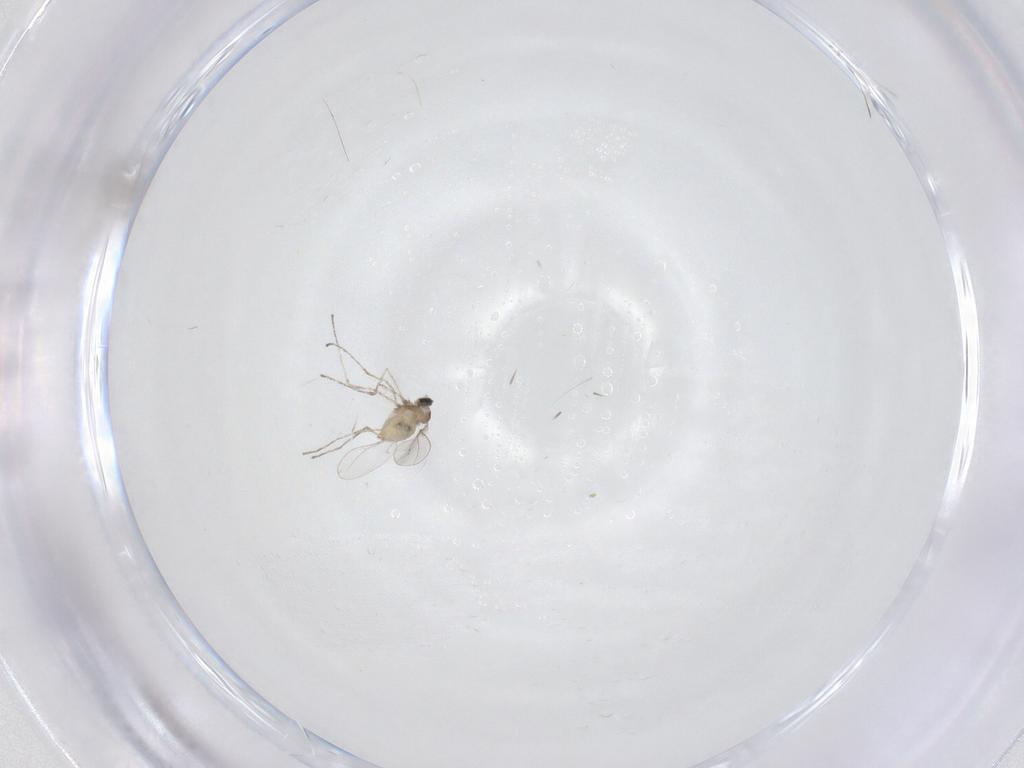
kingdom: Animalia
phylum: Arthropoda
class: Insecta
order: Diptera
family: Cecidomyiidae
